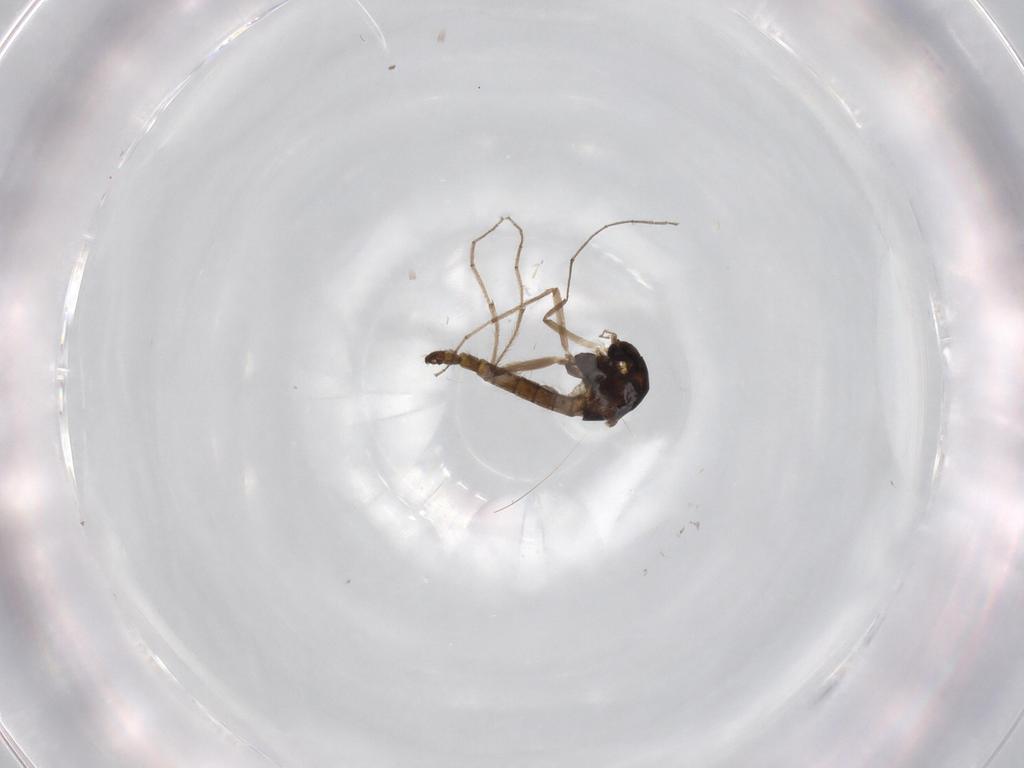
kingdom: Animalia
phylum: Arthropoda
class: Insecta
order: Diptera
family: Chironomidae
